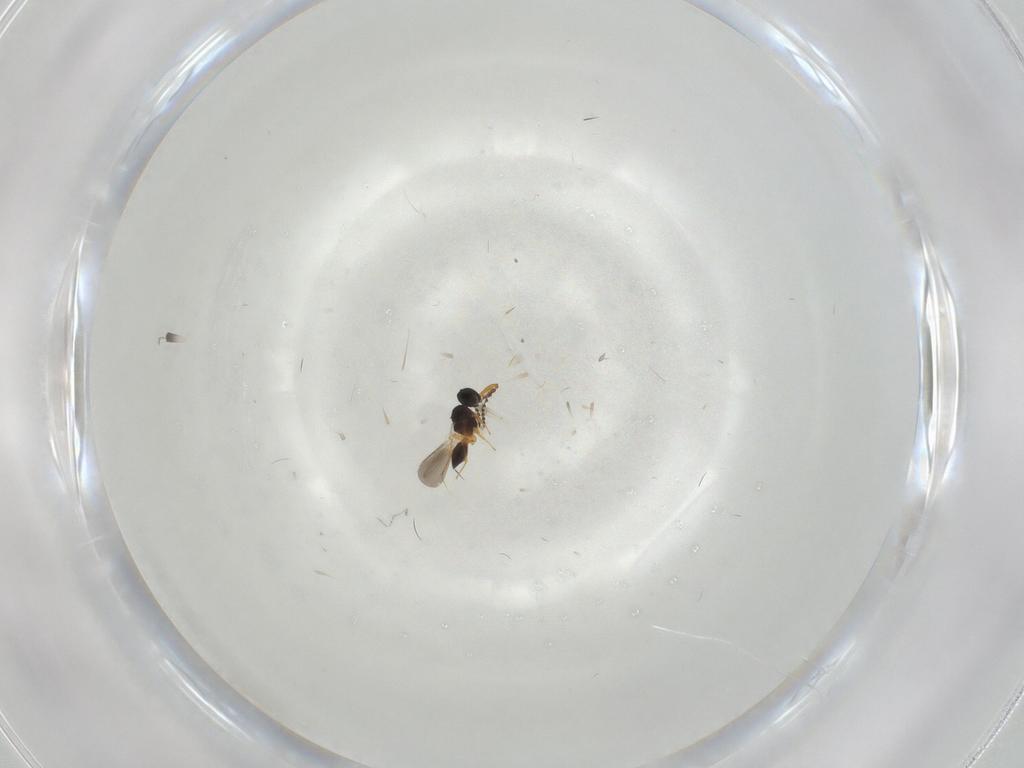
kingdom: Animalia
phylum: Arthropoda
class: Insecta
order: Hymenoptera
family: Platygastridae
